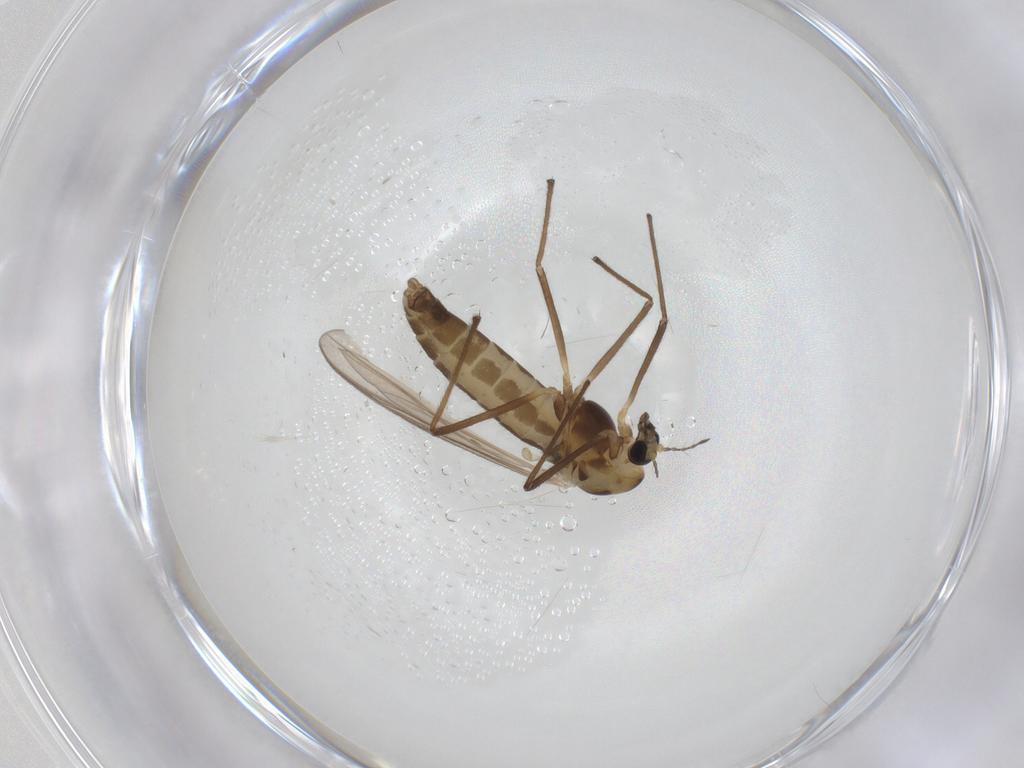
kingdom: Animalia
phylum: Arthropoda
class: Insecta
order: Diptera
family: Chironomidae
